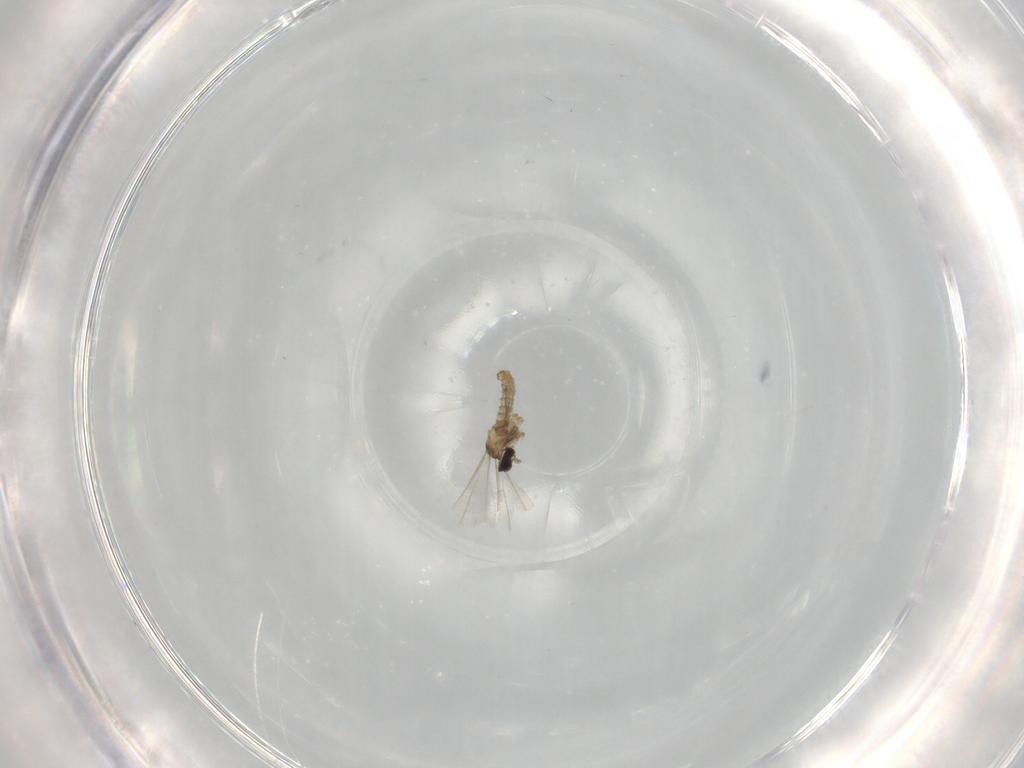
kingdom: Animalia
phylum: Arthropoda
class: Insecta
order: Diptera
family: Cecidomyiidae
